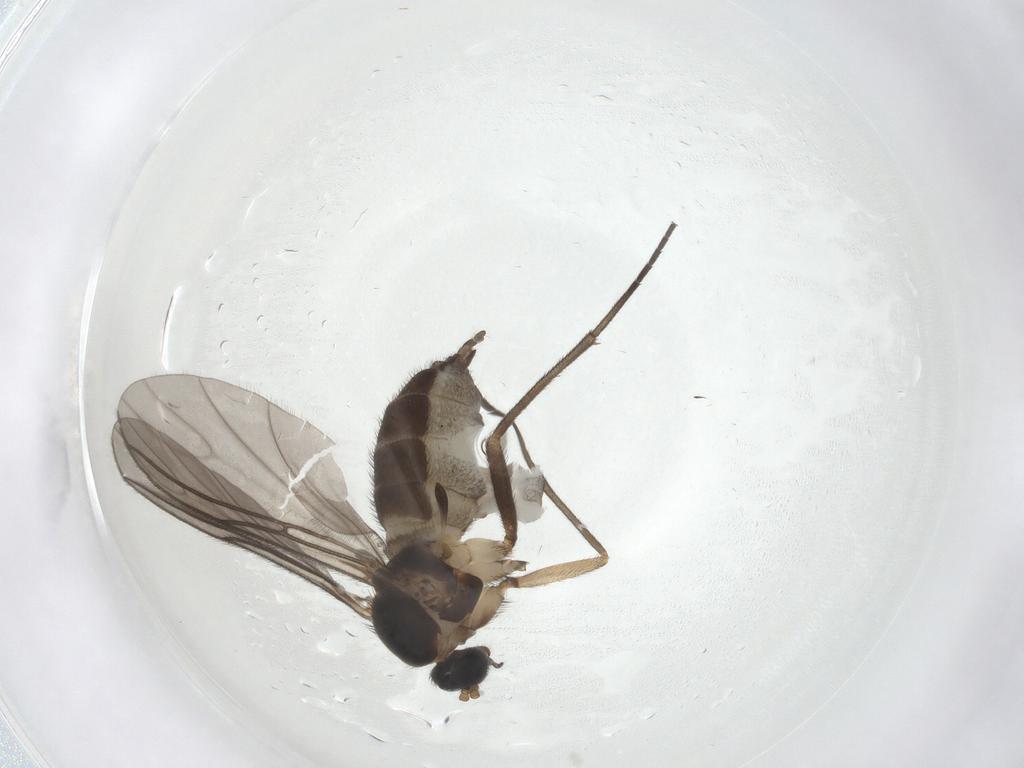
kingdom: Animalia
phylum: Arthropoda
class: Insecta
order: Diptera
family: Sciaridae
